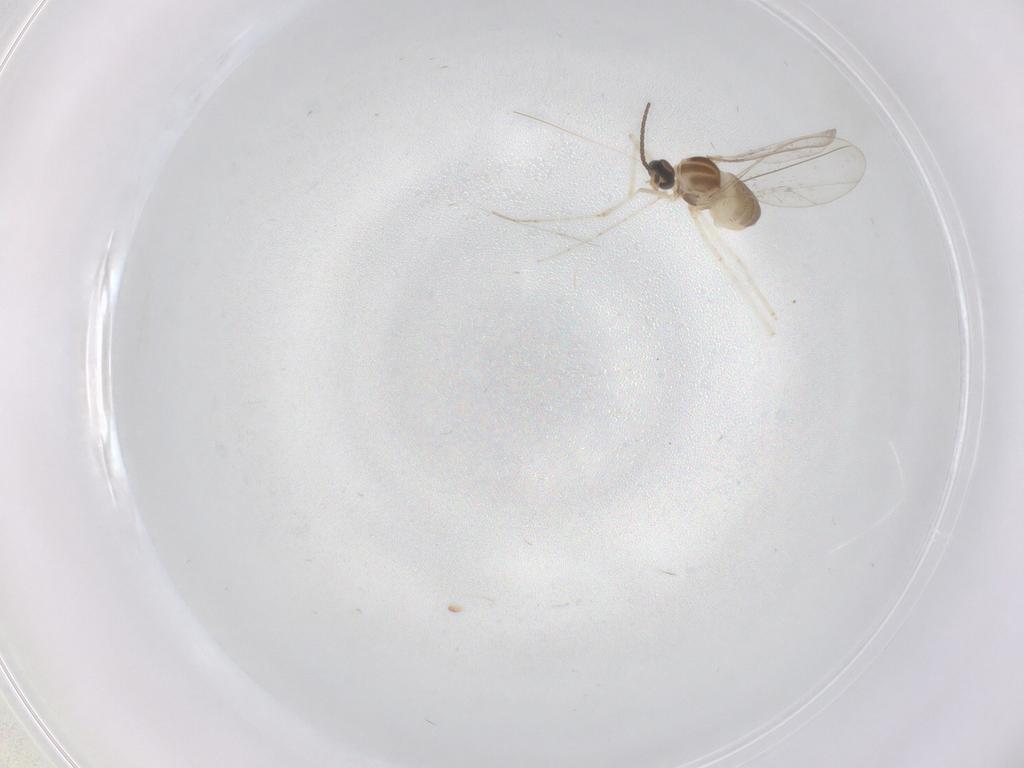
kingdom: Animalia
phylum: Arthropoda
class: Insecta
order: Diptera
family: Cecidomyiidae
